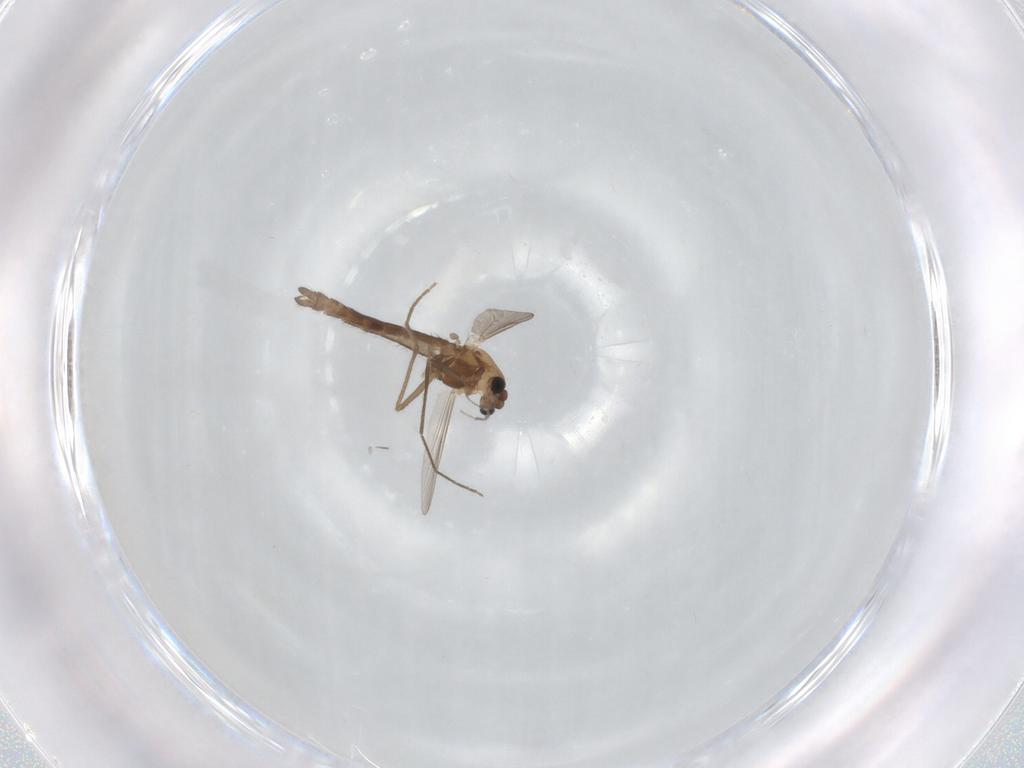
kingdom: Animalia
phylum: Arthropoda
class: Insecta
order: Diptera
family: Chironomidae
